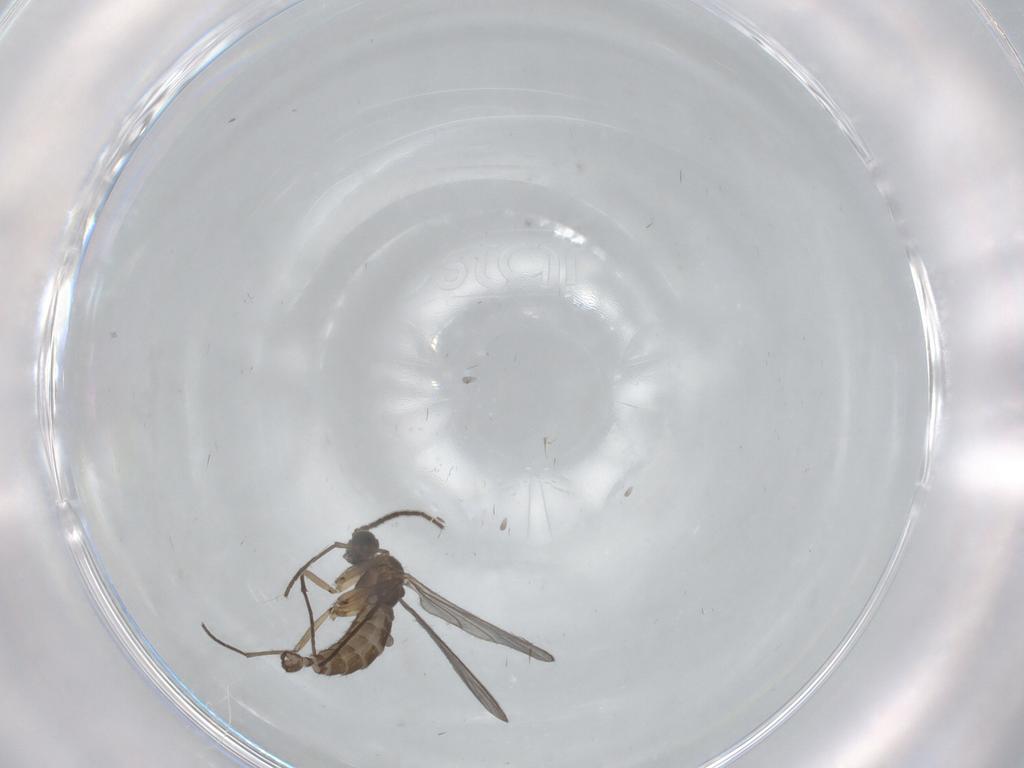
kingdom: Animalia
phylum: Arthropoda
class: Insecta
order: Diptera
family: Sciaridae
